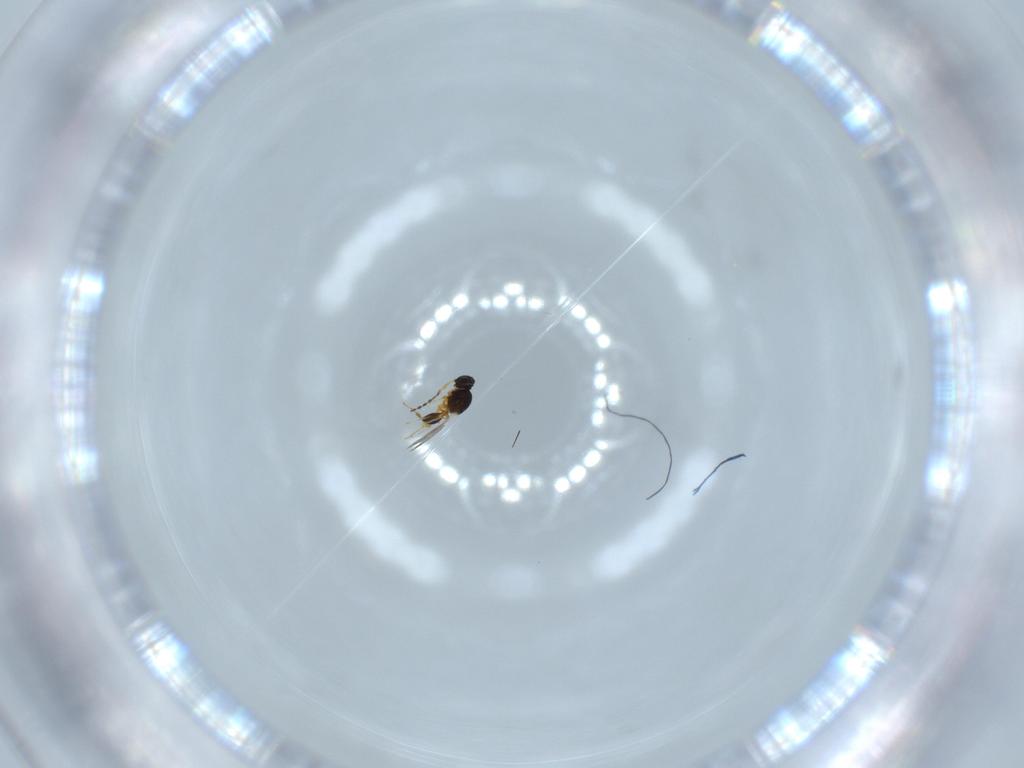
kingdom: Animalia
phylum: Arthropoda
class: Insecta
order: Hymenoptera
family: Platygastridae
